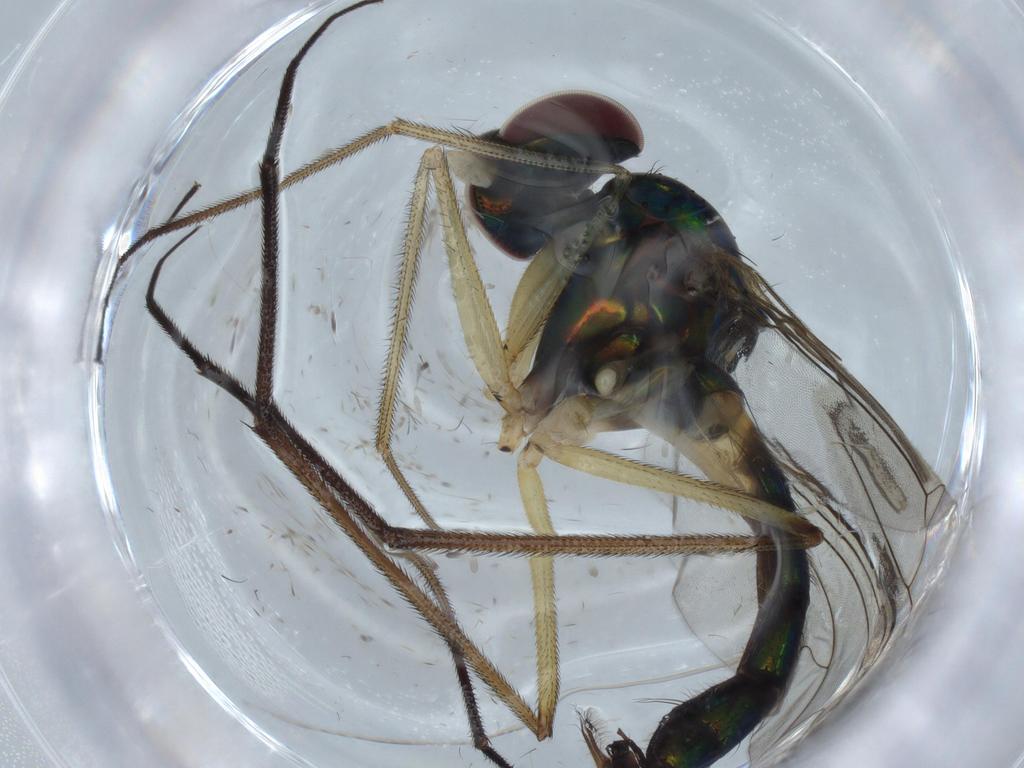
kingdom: Animalia
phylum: Arthropoda
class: Insecta
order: Diptera
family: Dolichopodidae
